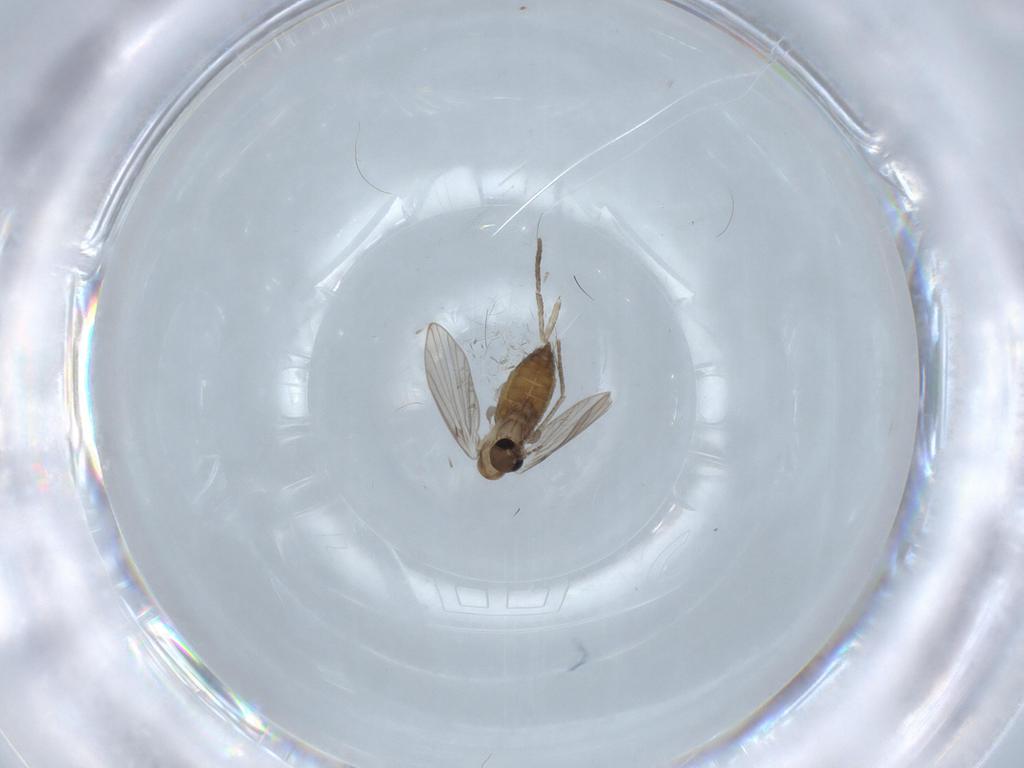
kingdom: Animalia
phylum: Arthropoda
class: Insecta
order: Diptera
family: Psychodidae
